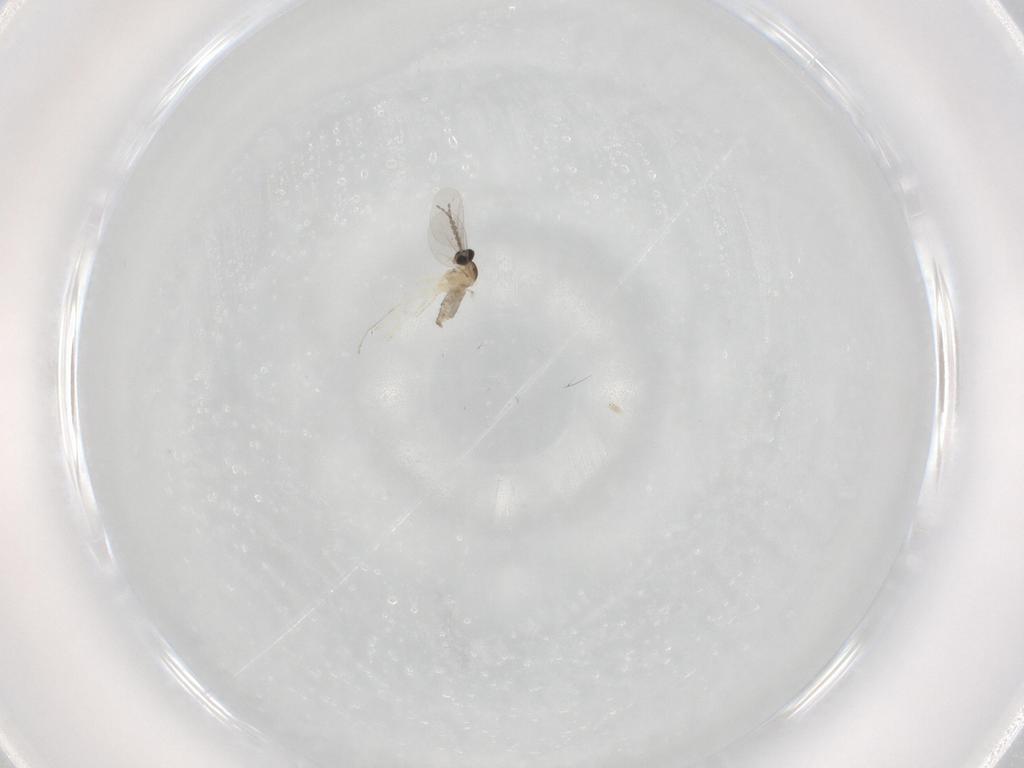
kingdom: Animalia
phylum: Arthropoda
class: Insecta
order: Diptera
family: Cecidomyiidae
